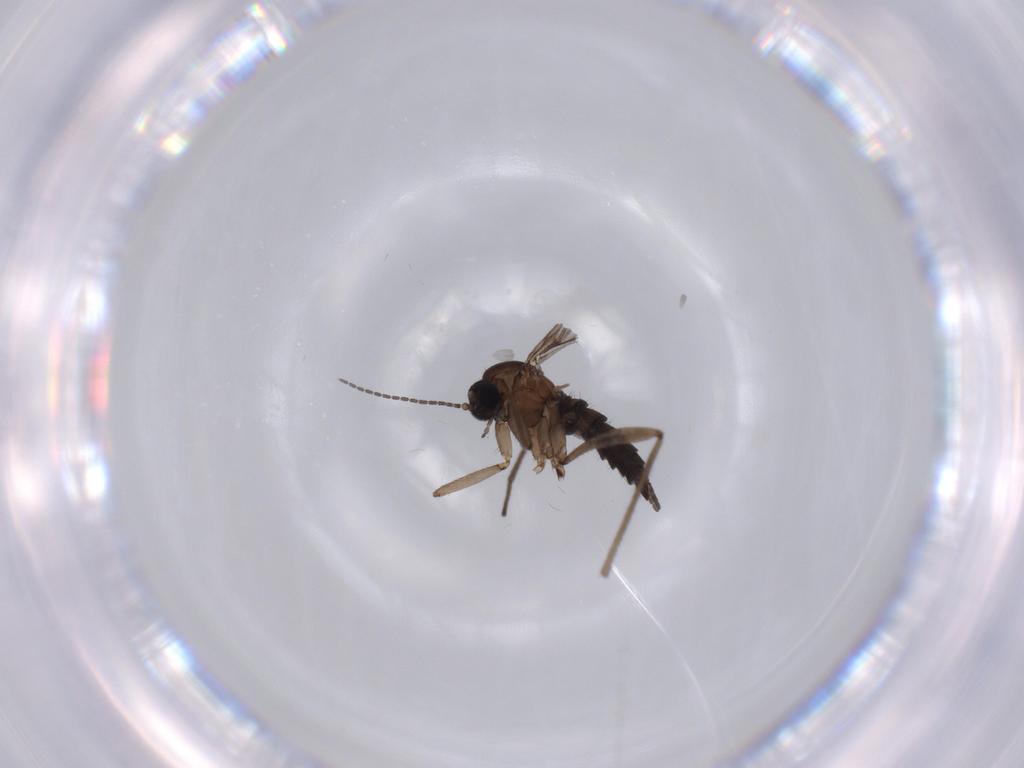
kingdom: Animalia
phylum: Arthropoda
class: Insecta
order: Diptera
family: Sciaridae
